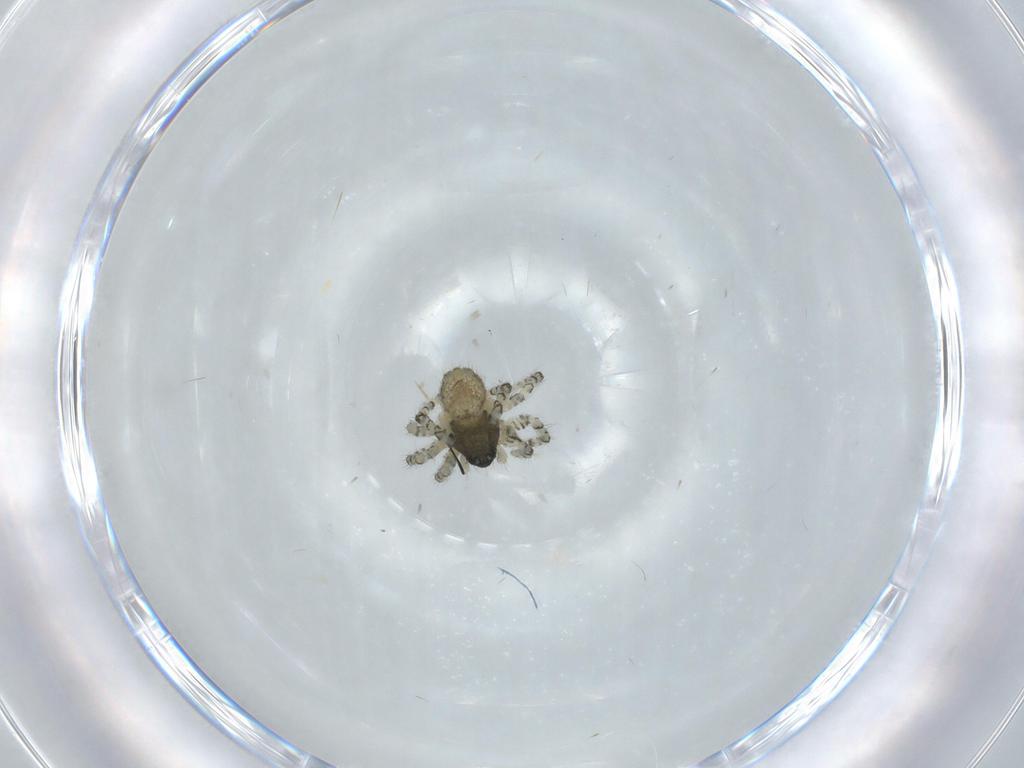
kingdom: Animalia
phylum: Arthropoda
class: Arachnida
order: Araneae
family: Theridiidae
